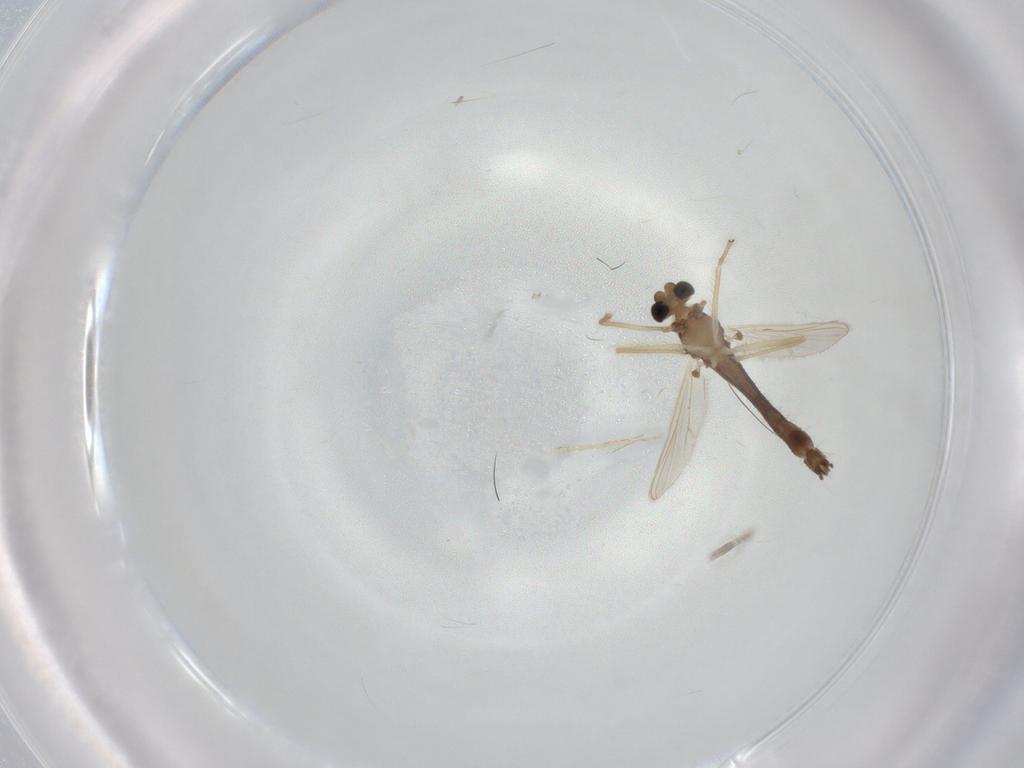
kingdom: Animalia
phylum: Arthropoda
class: Insecta
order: Diptera
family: Chironomidae
